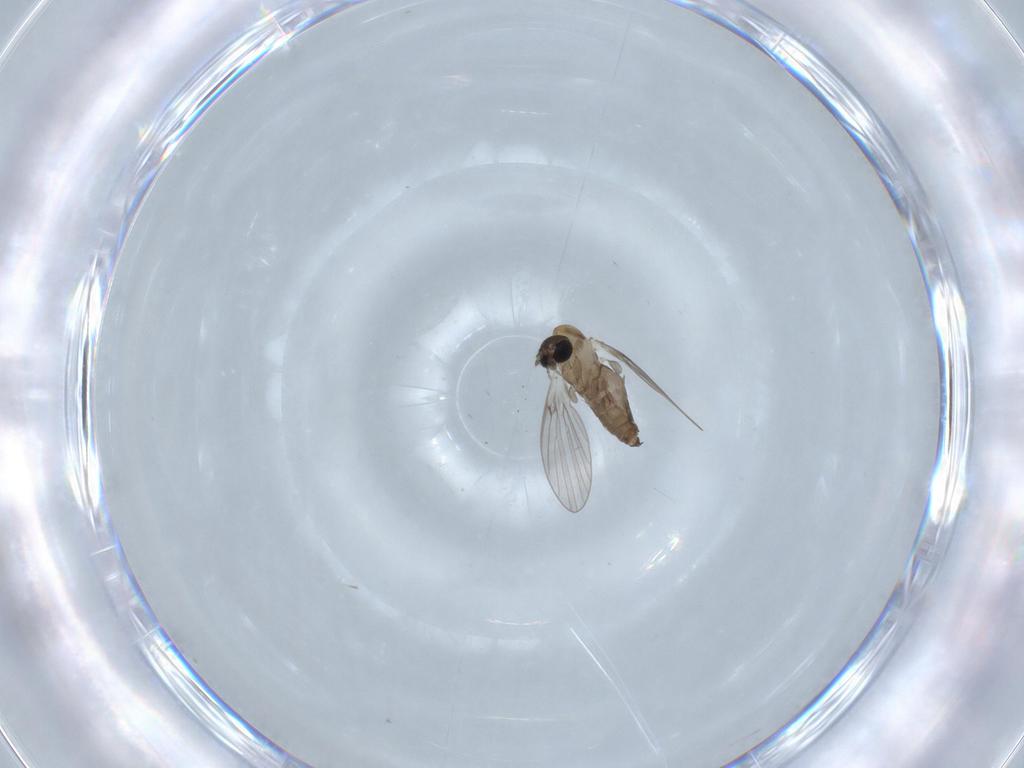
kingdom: Animalia
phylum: Arthropoda
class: Insecta
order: Diptera
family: Psychodidae
